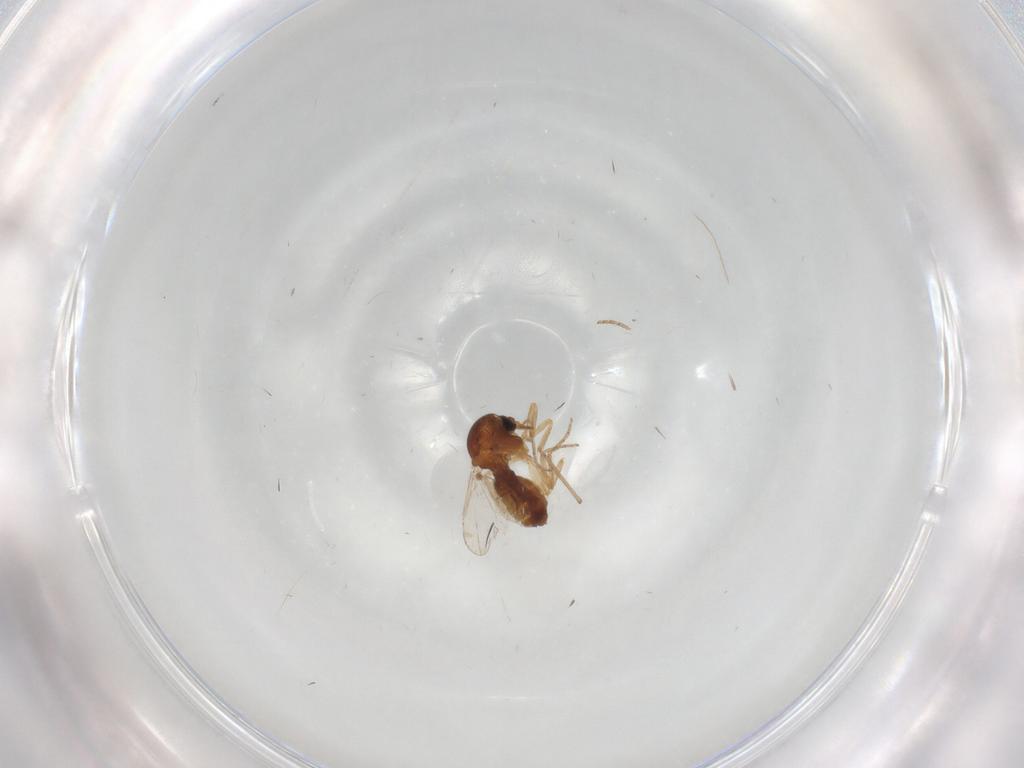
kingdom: Animalia
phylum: Arthropoda
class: Insecta
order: Diptera
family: Ceratopogonidae
